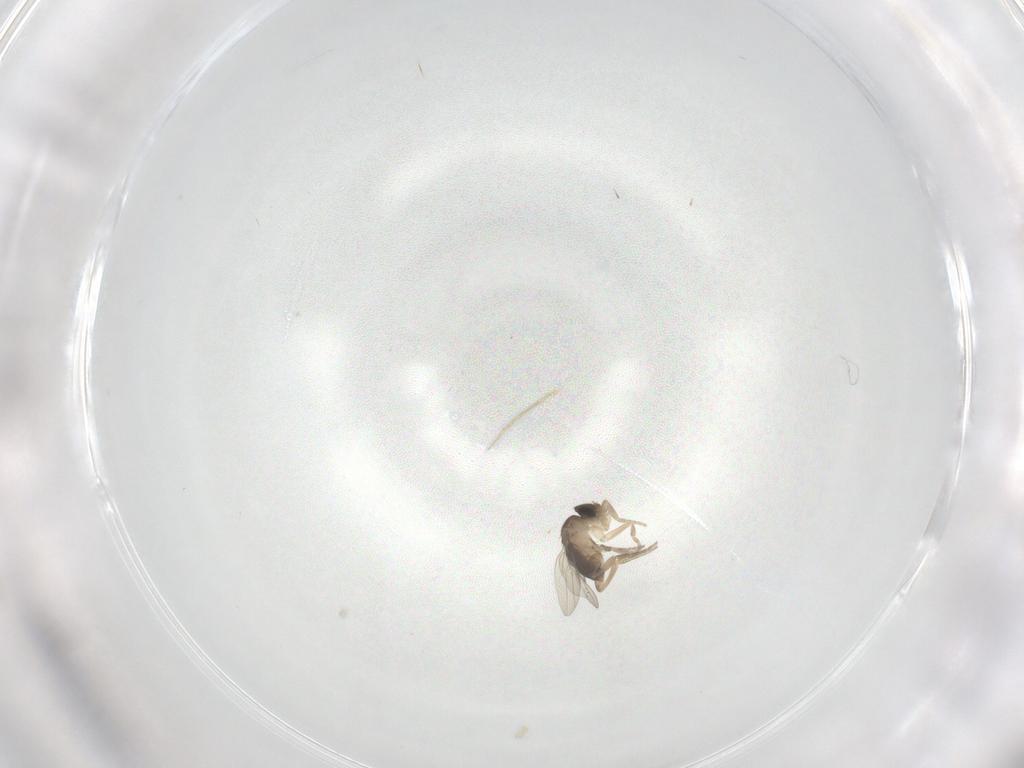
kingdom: Animalia
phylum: Arthropoda
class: Insecta
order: Diptera
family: Phoridae
